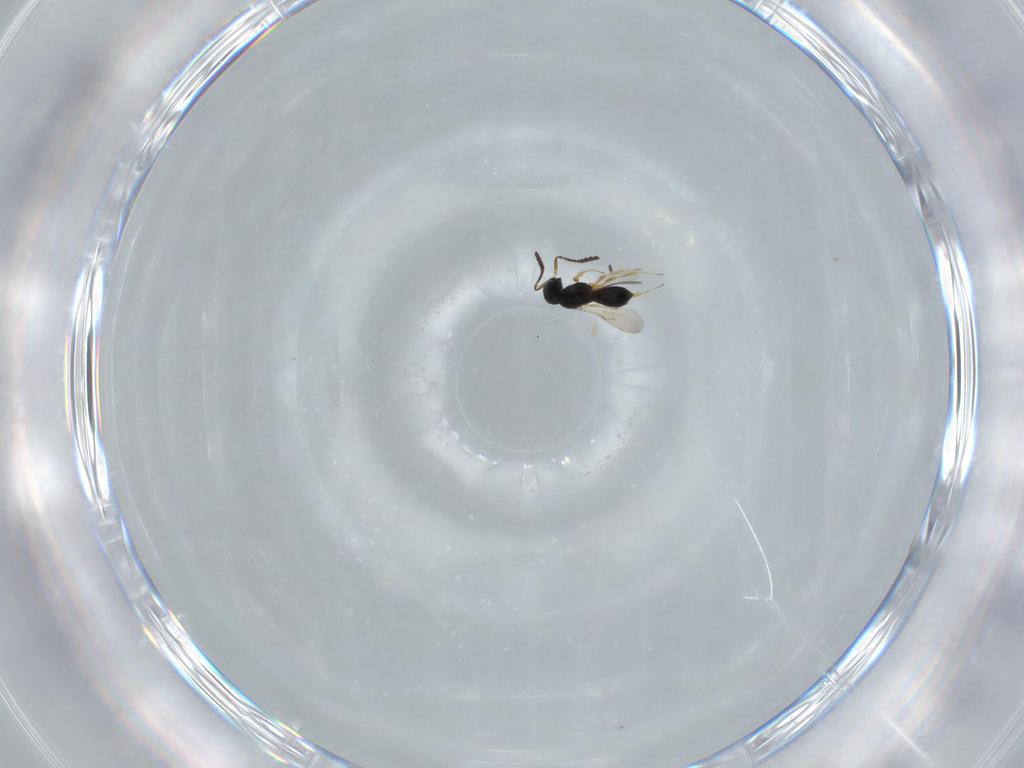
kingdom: Animalia
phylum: Arthropoda
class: Insecta
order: Hymenoptera
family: Scelionidae
